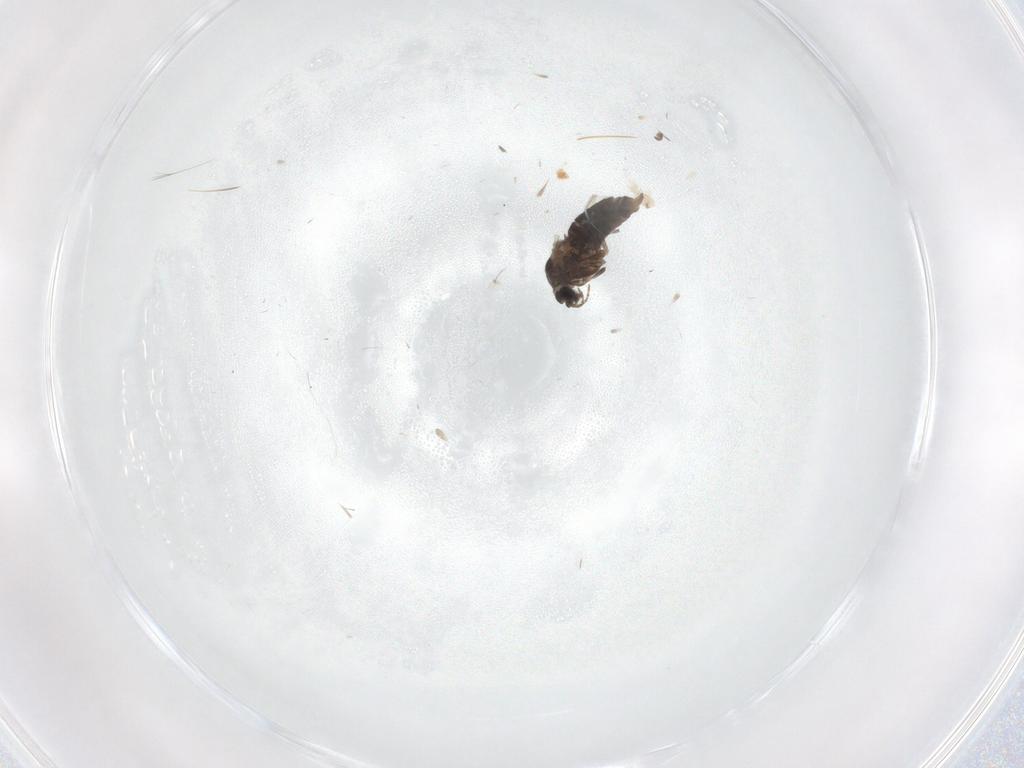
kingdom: Animalia
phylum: Arthropoda
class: Insecta
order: Diptera
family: Chironomidae
